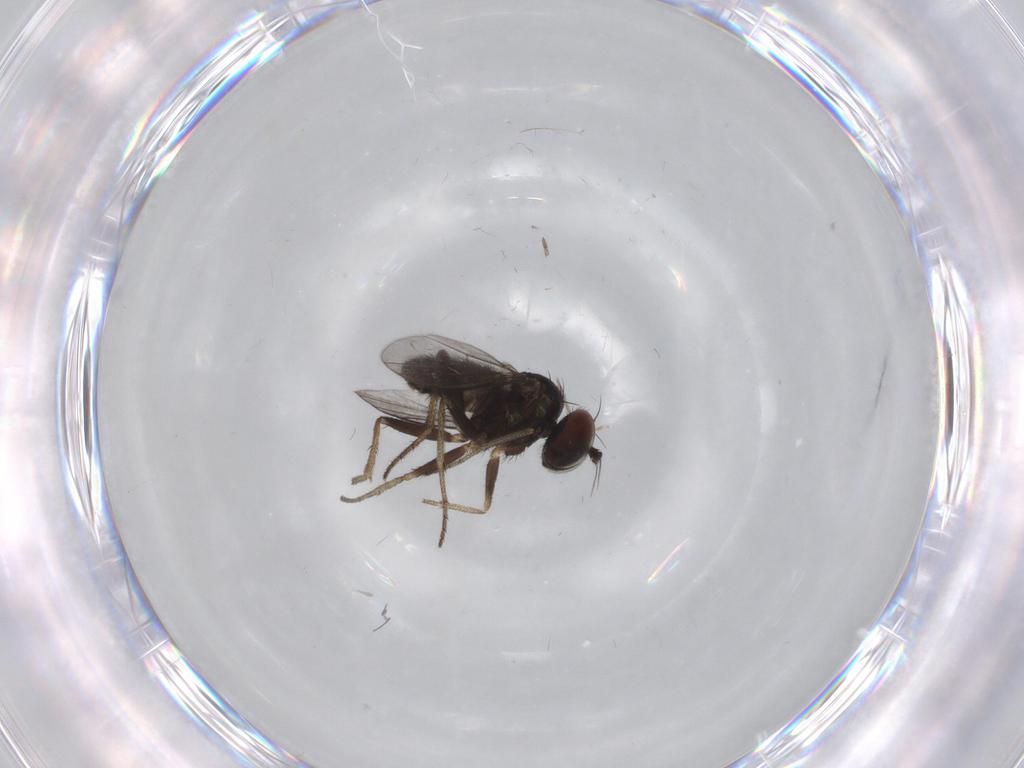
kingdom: Animalia
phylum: Arthropoda
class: Insecta
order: Diptera
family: Dolichopodidae
